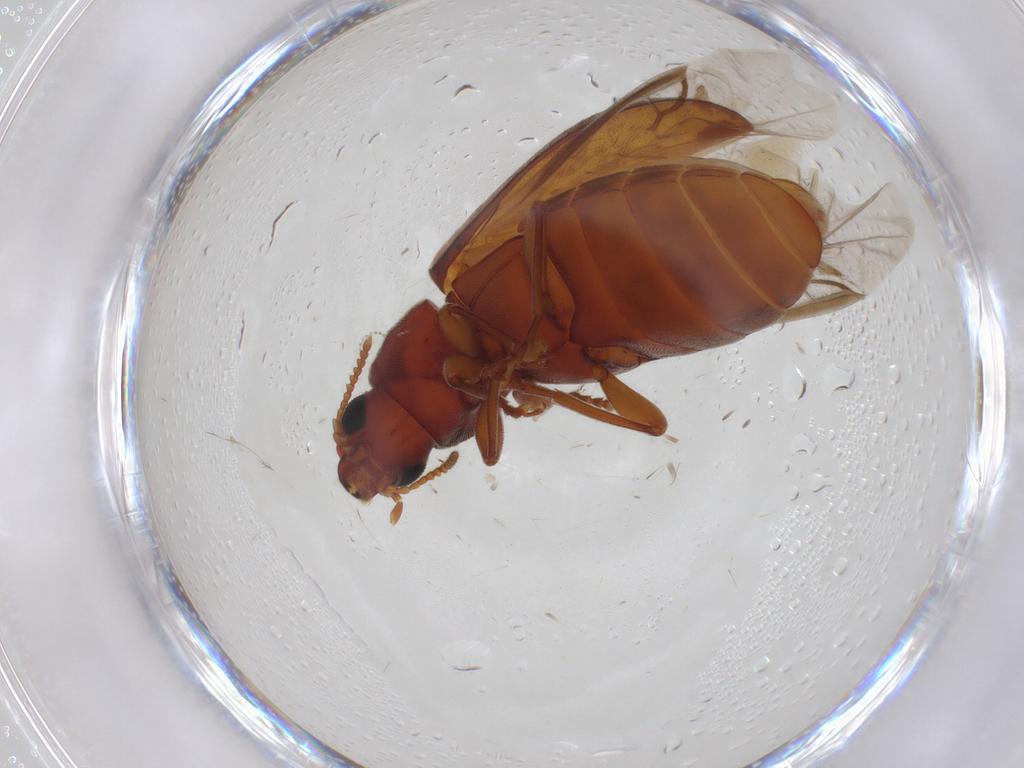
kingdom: Animalia
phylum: Arthropoda
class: Insecta
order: Coleoptera
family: Mycteridae
